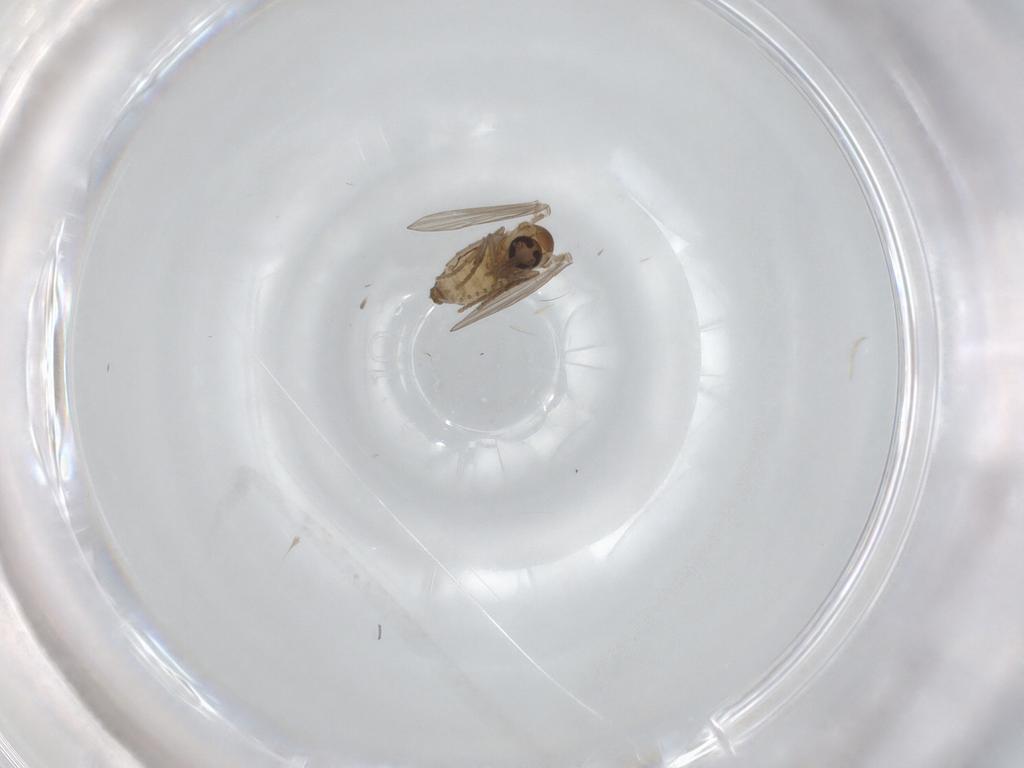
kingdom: Animalia
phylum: Arthropoda
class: Insecta
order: Diptera
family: Psychodidae
